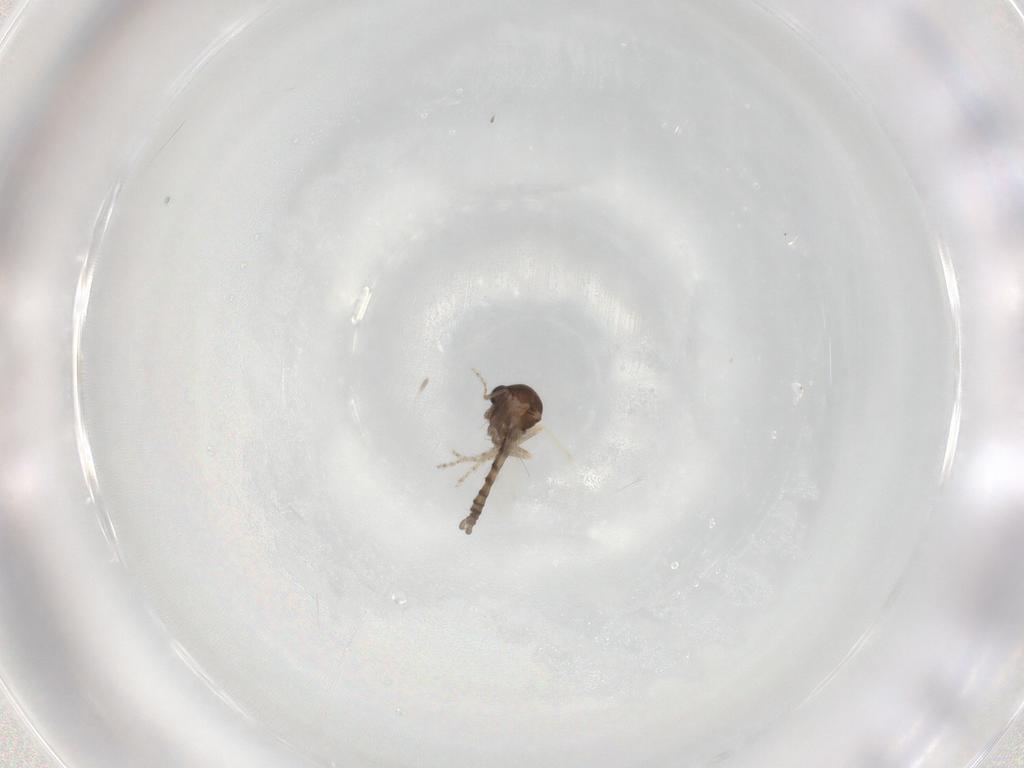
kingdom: Animalia
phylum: Arthropoda
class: Insecta
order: Diptera
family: Ceratopogonidae
